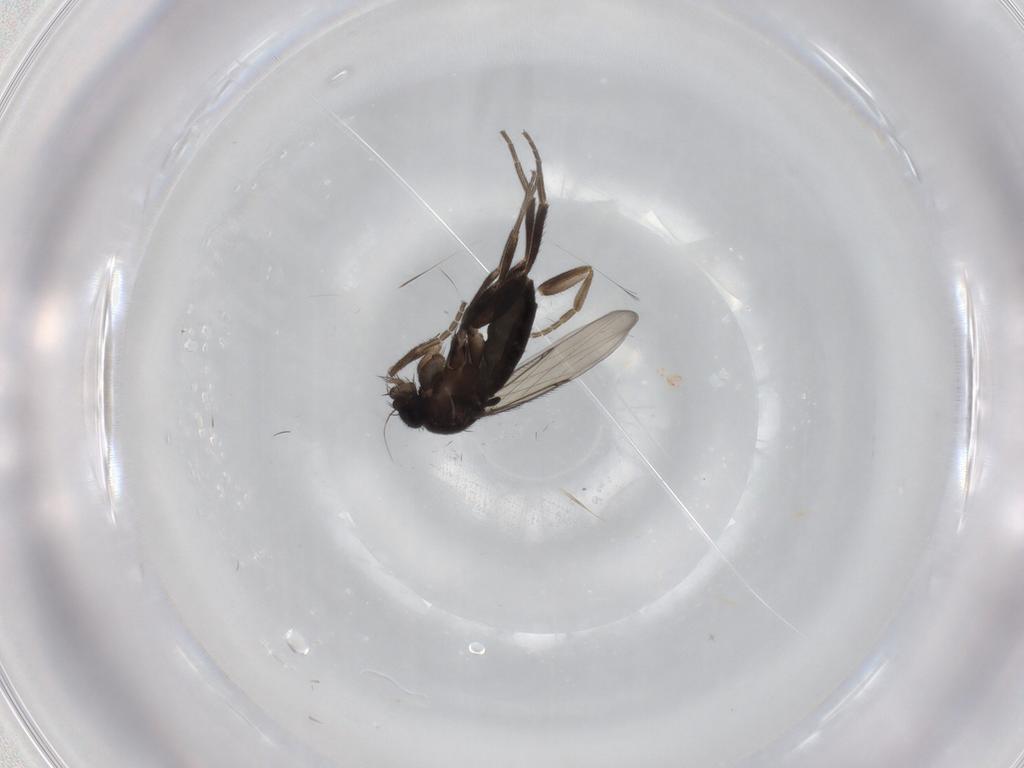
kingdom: Animalia
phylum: Arthropoda
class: Insecta
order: Diptera
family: Phoridae
